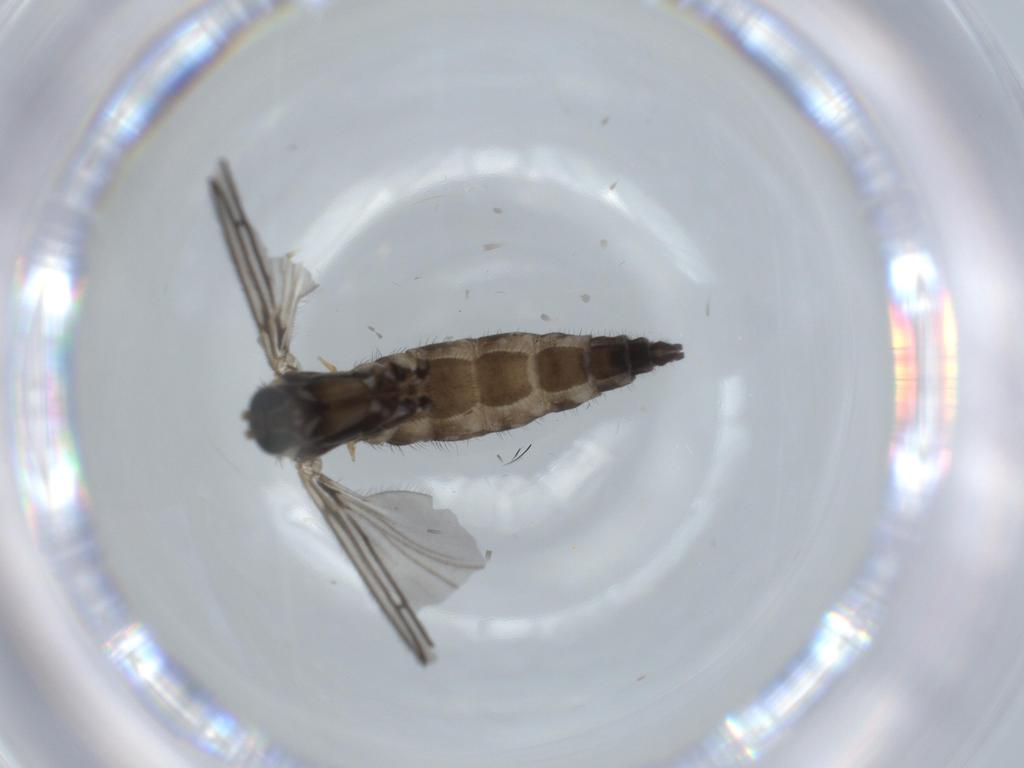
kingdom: Animalia
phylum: Arthropoda
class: Insecta
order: Diptera
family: Sciaridae
